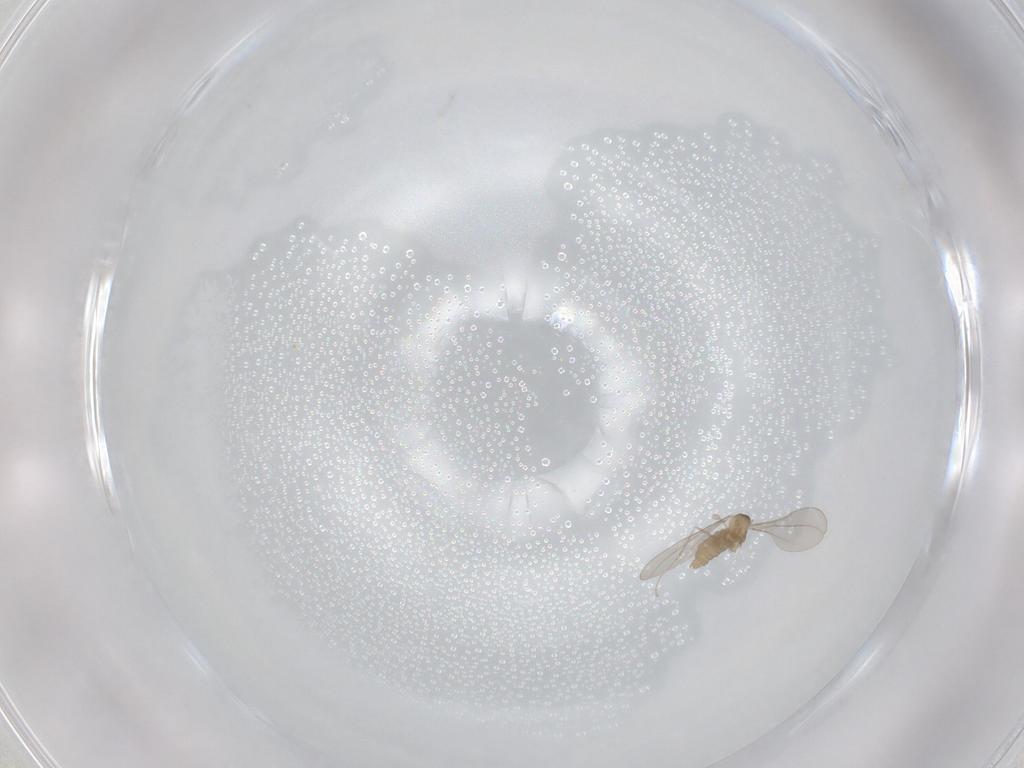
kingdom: Animalia
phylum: Arthropoda
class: Insecta
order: Diptera
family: Cecidomyiidae
